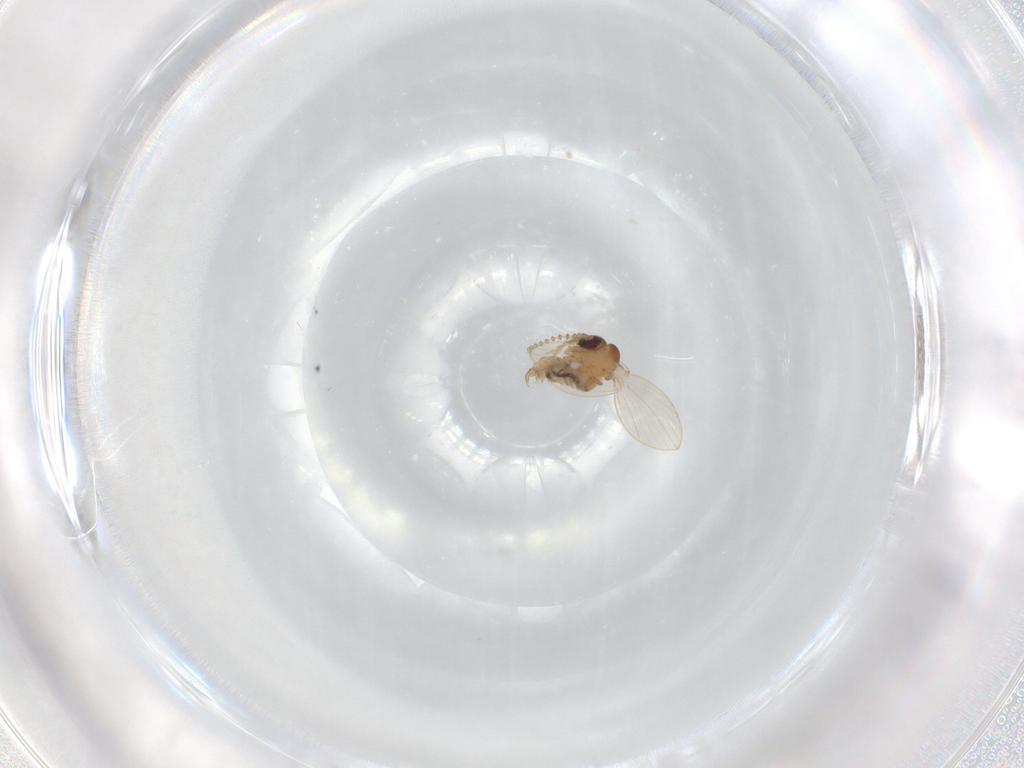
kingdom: Animalia
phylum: Arthropoda
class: Insecta
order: Diptera
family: Psychodidae
